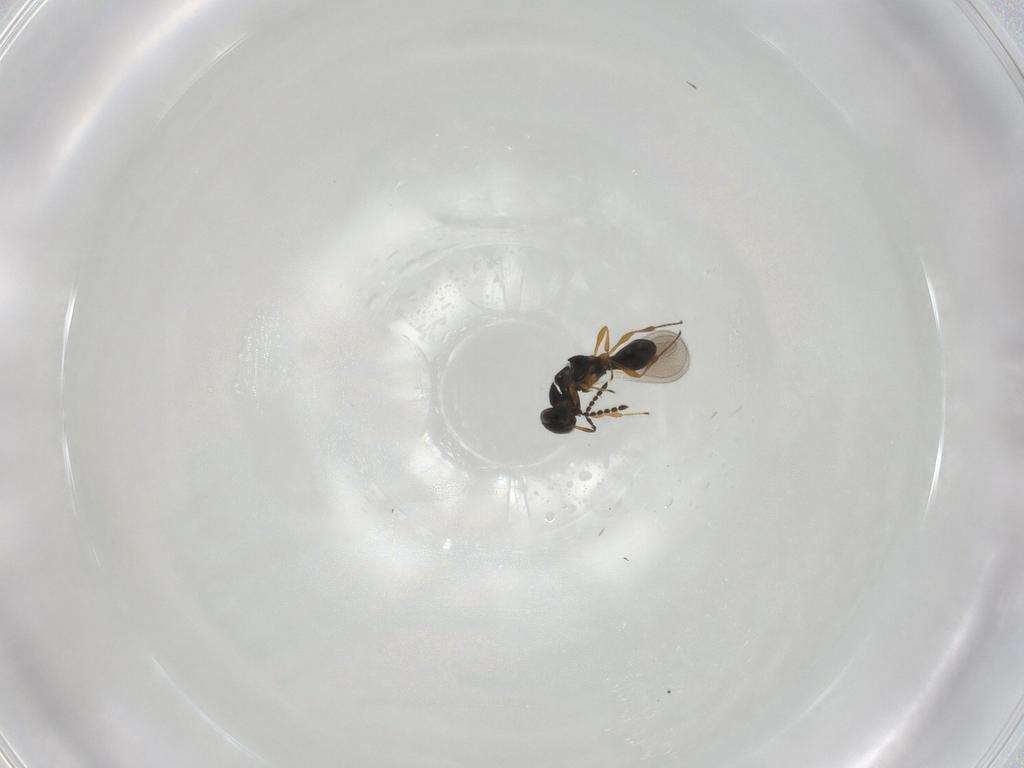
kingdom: Animalia
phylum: Arthropoda
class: Insecta
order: Hymenoptera
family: Platygastridae
